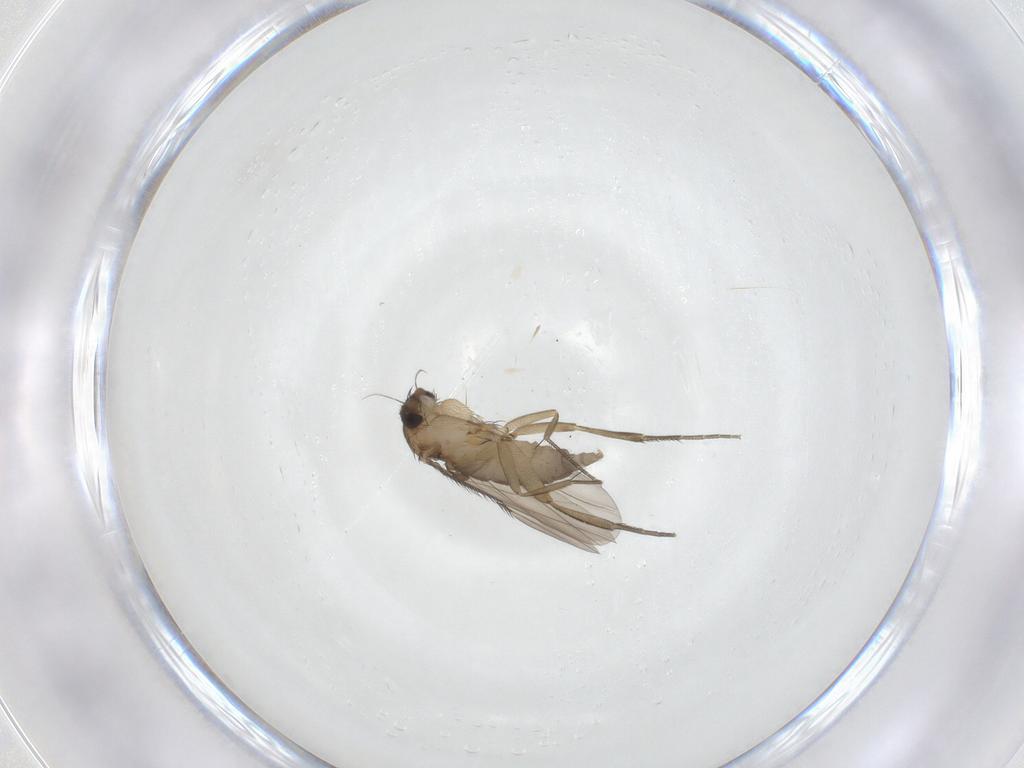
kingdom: Animalia
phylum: Arthropoda
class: Insecta
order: Diptera
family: Phoridae
